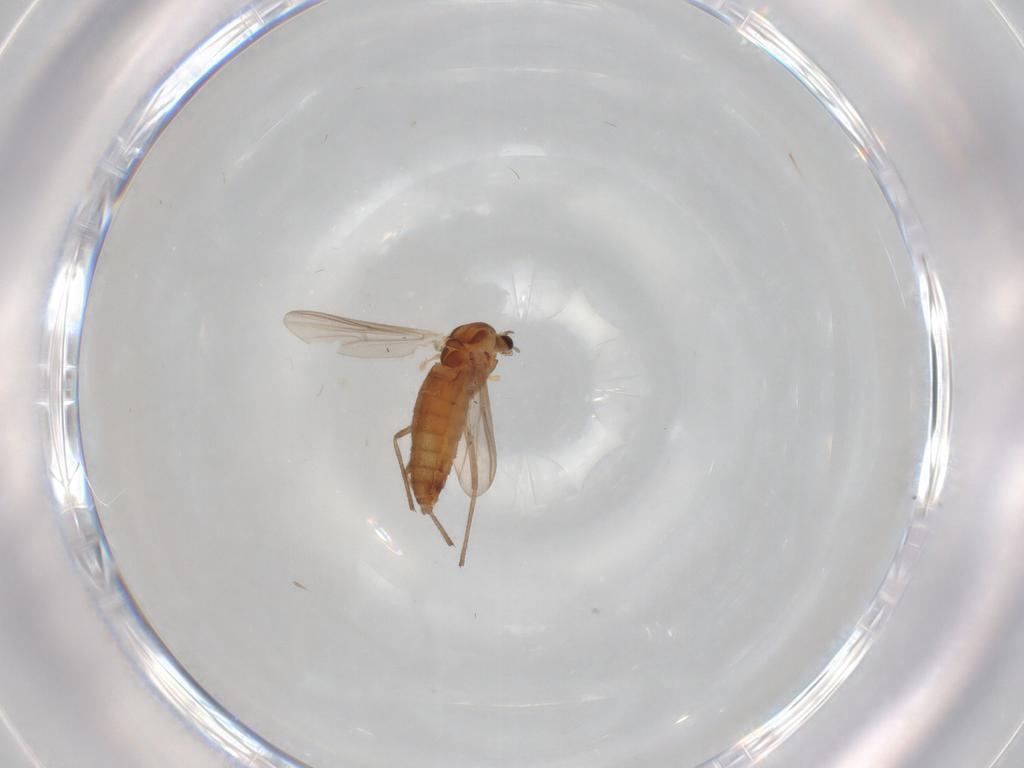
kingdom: Animalia
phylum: Arthropoda
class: Insecta
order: Diptera
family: Chironomidae
